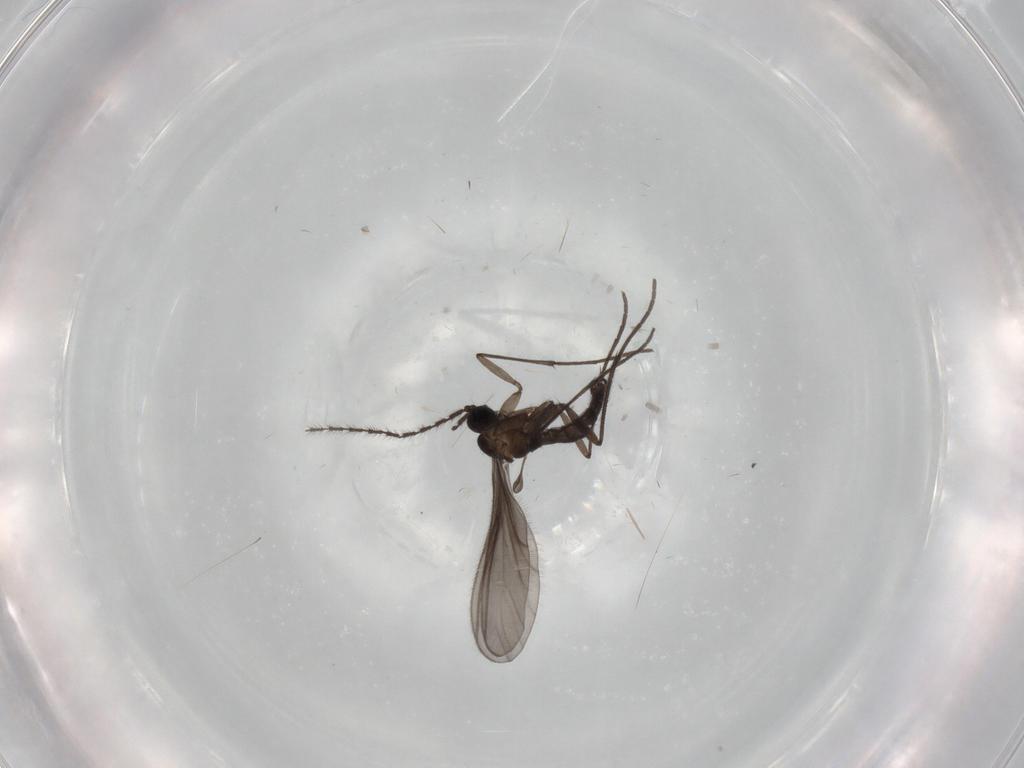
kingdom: Animalia
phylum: Arthropoda
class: Insecta
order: Diptera
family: Sciaridae
